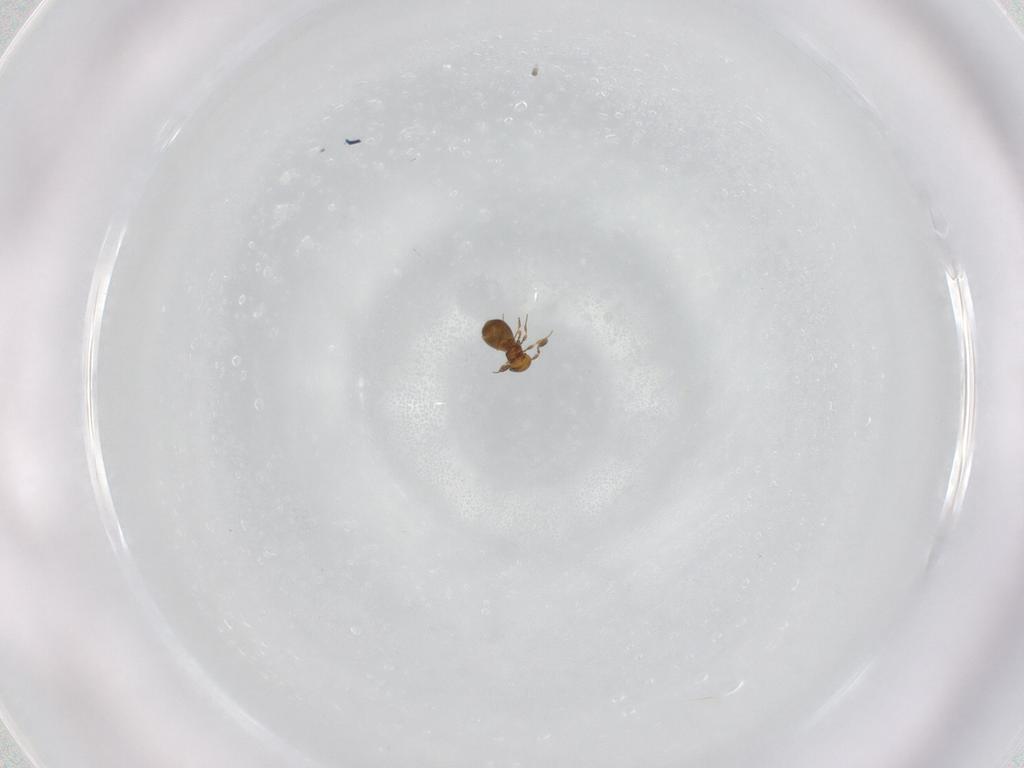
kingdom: Animalia
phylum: Arthropoda
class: Insecta
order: Hymenoptera
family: Platygastridae
